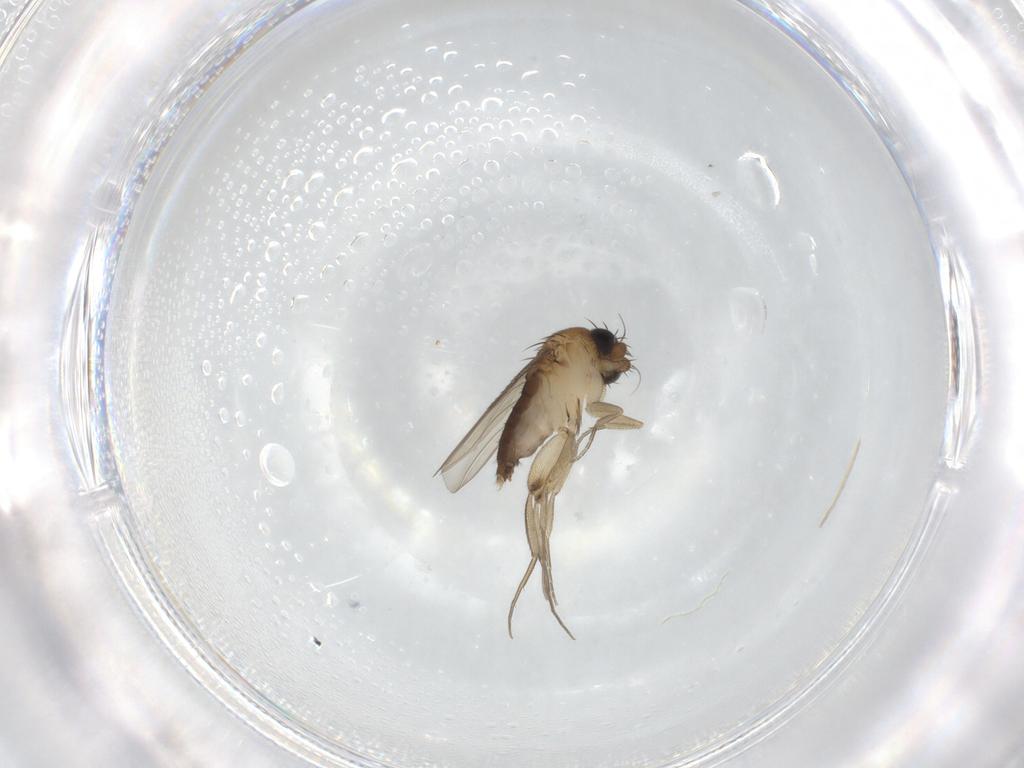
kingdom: Animalia
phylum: Arthropoda
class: Insecta
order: Diptera
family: Phoridae
